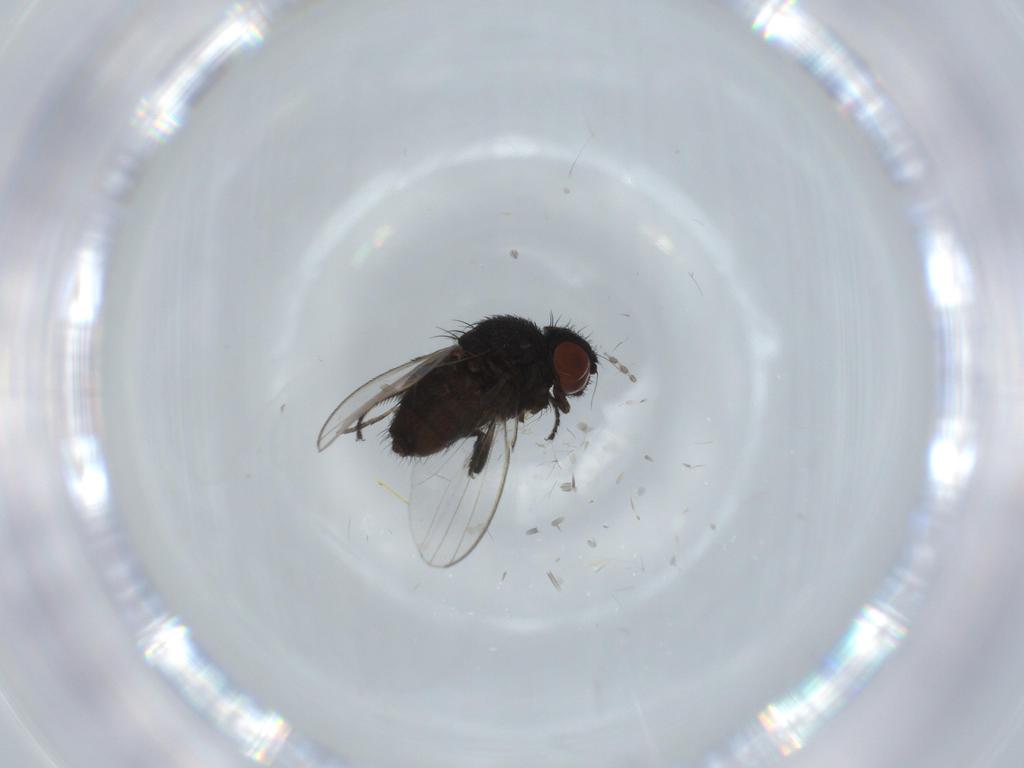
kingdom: Animalia
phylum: Arthropoda
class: Insecta
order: Diptera
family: Milichiidae
